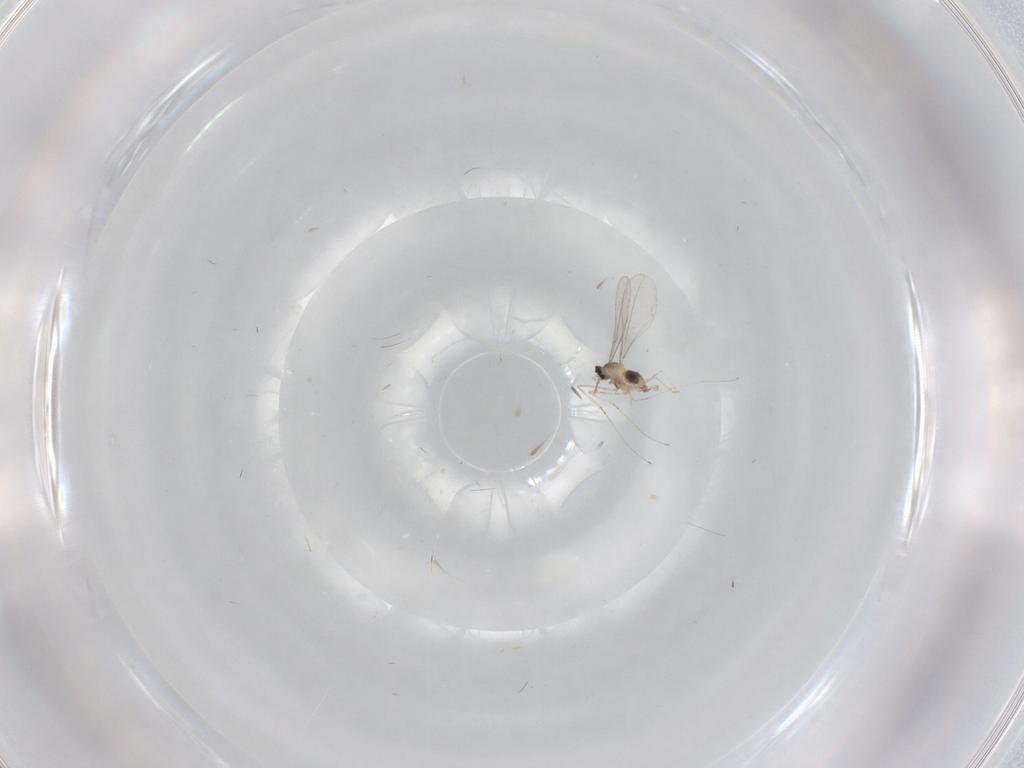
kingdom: Animalia
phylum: Arthropoda
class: Insecta
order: Diptera
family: Cecidomyiidae
